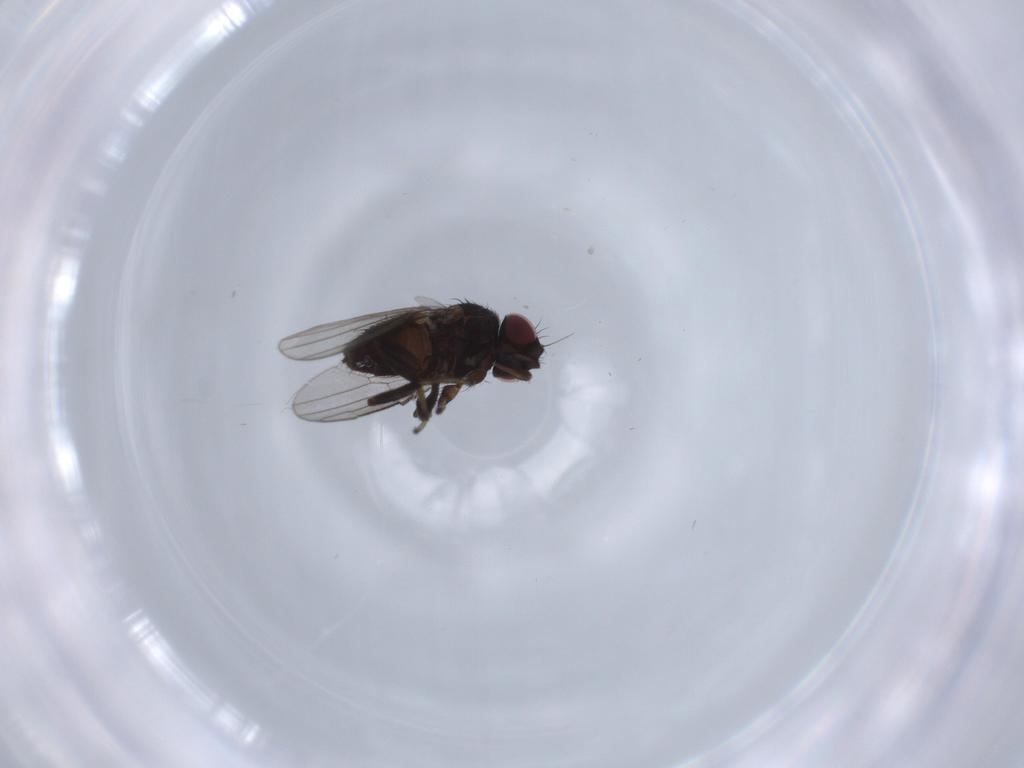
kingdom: Animalia
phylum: Arthropoda
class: Insecta
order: Diptera
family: Milichiidae
